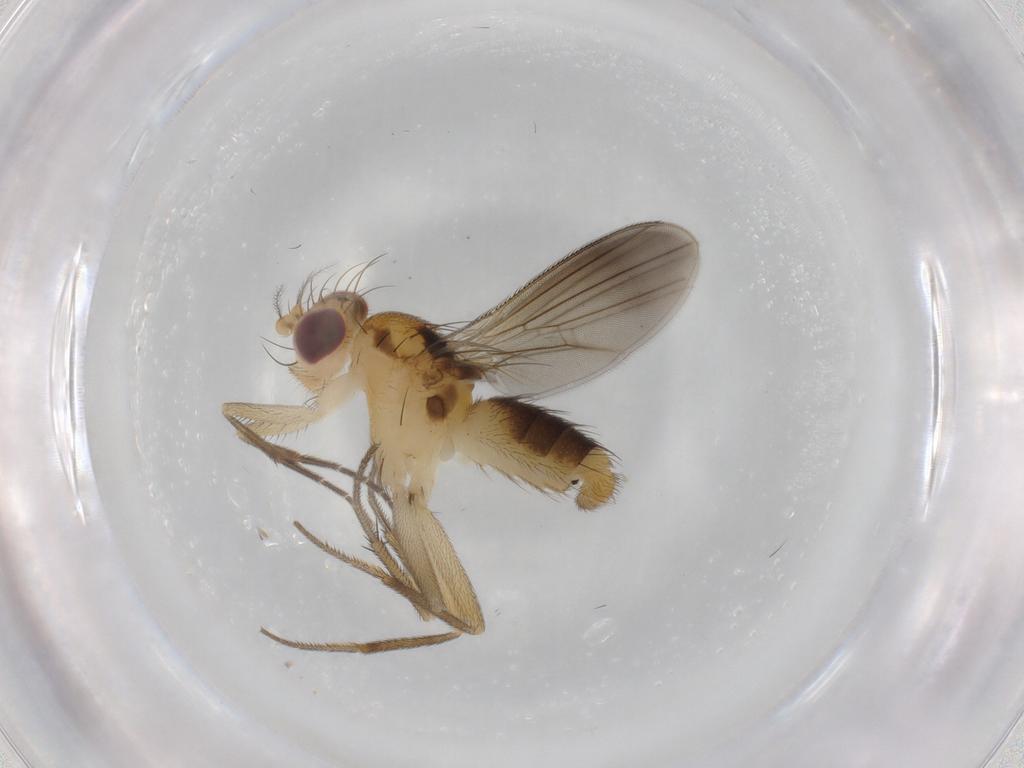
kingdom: Animalia
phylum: Arthropoda
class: Insecta
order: Diptera
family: Clusiidae
